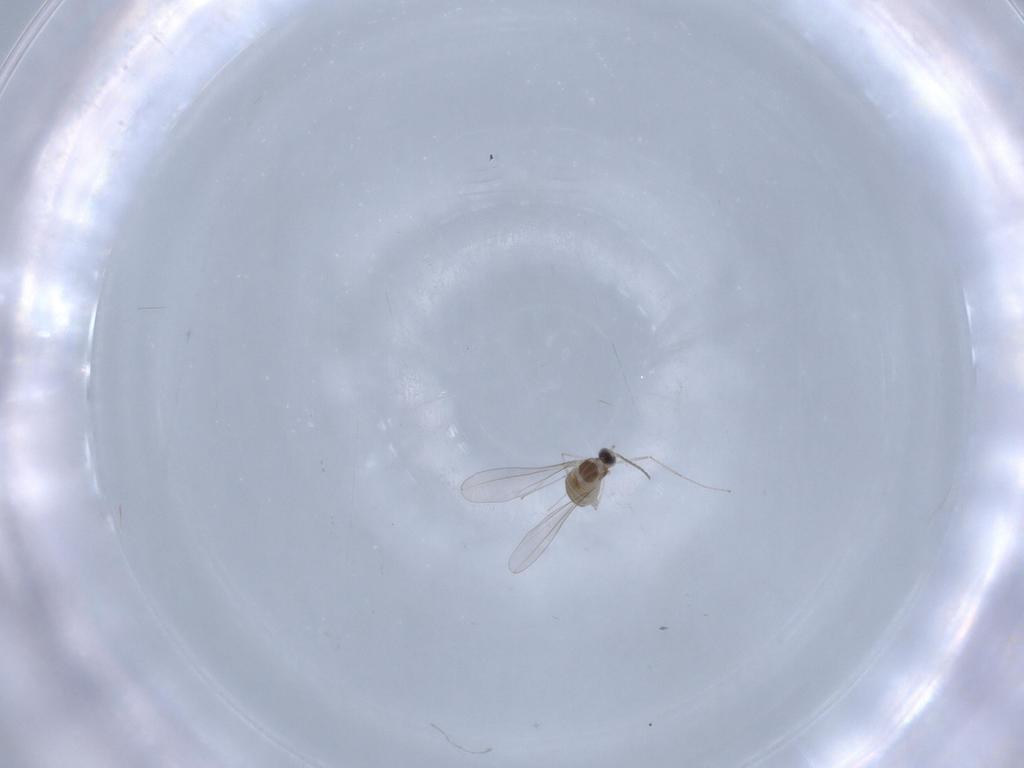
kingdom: Animalia
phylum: Arthropoda
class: Insecta
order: Diptera
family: Cecidomyiidae
